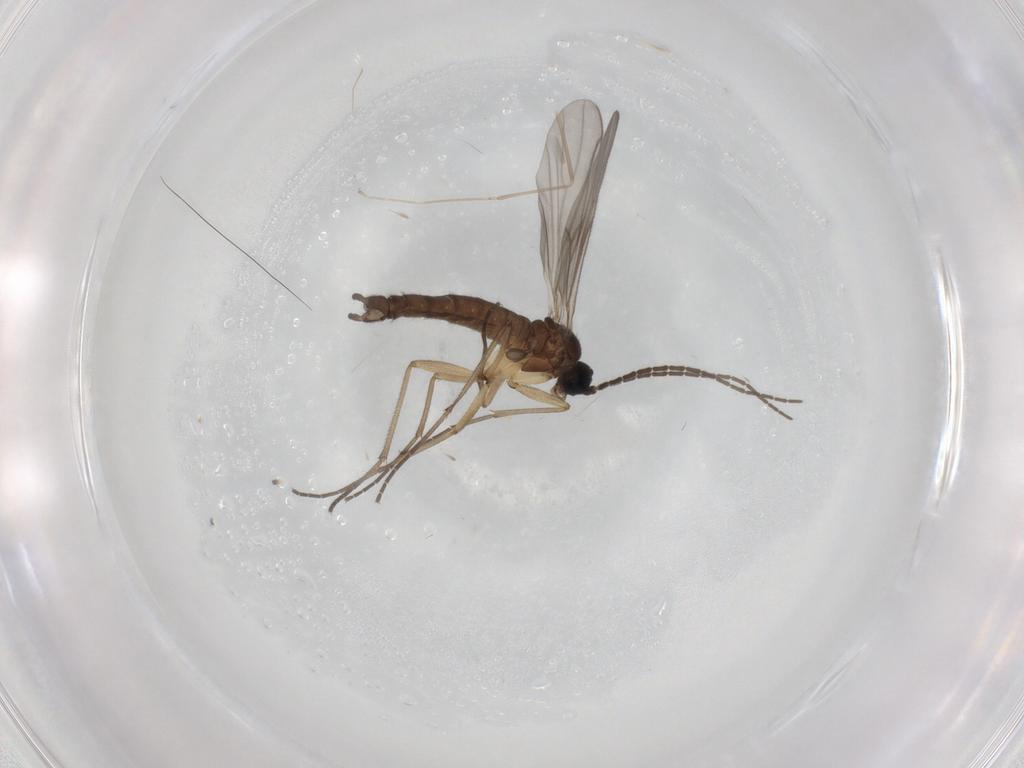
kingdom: Animalia
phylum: Arthropoda
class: Insecta
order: Diptera
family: Sciaridae
